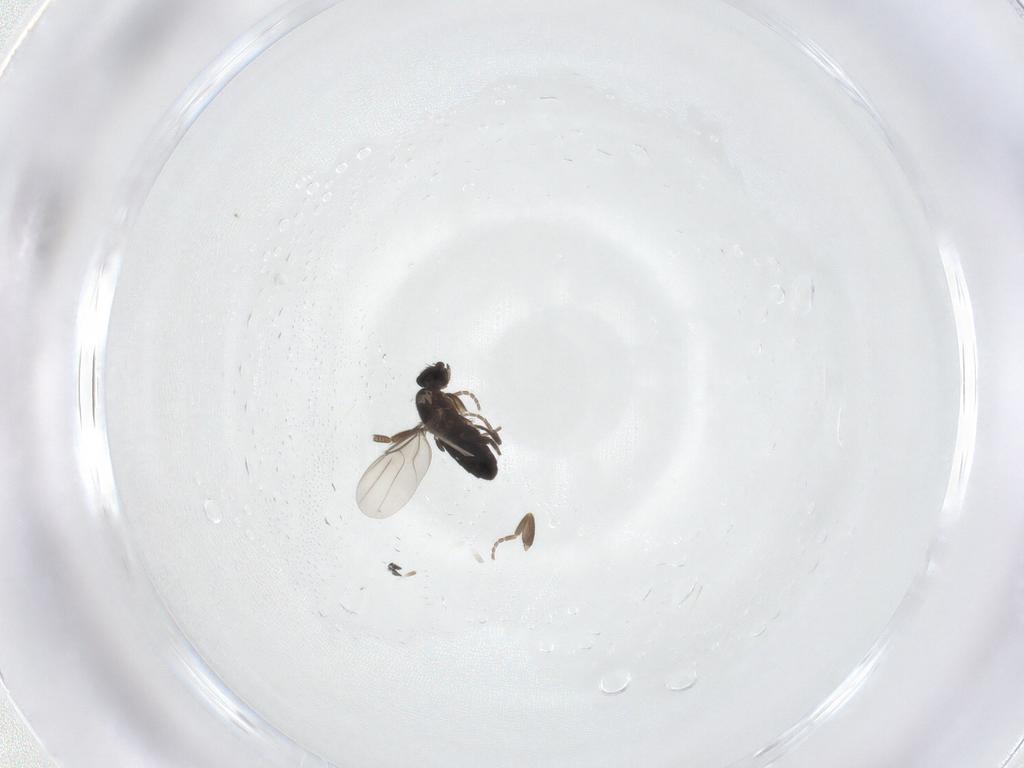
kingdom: Animalia
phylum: Arthropoda
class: Insecta
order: Diptera
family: Phoridae
